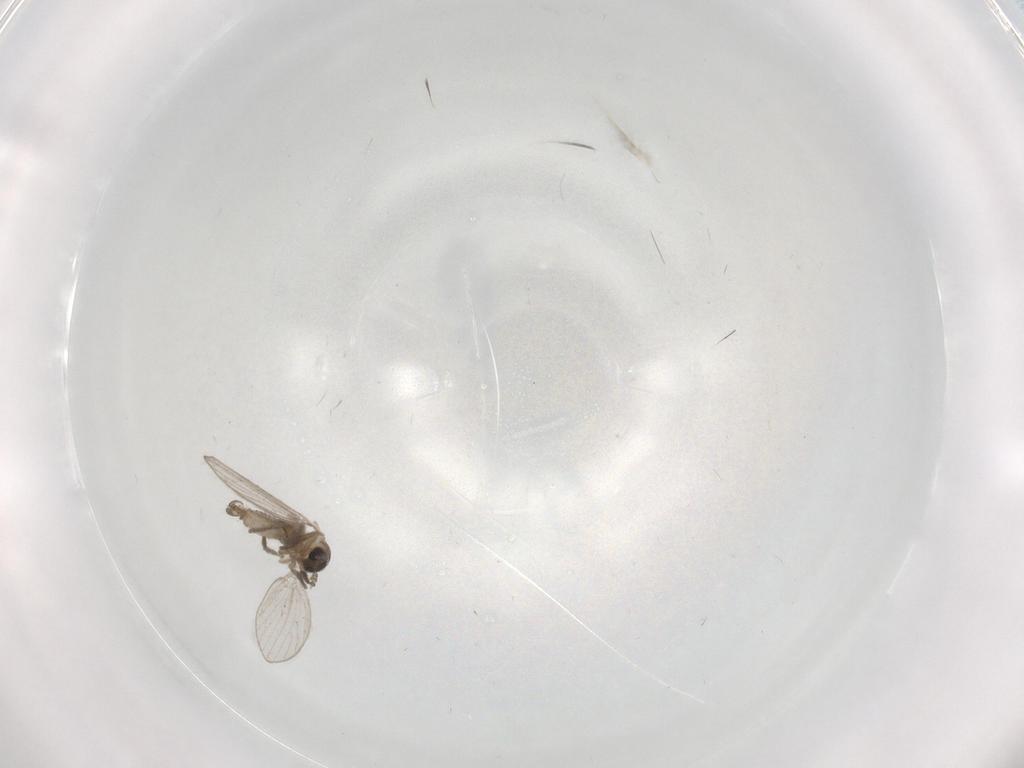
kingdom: Animalia
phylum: Arthropoda
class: Insecta
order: Diptera
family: Psychodidae
